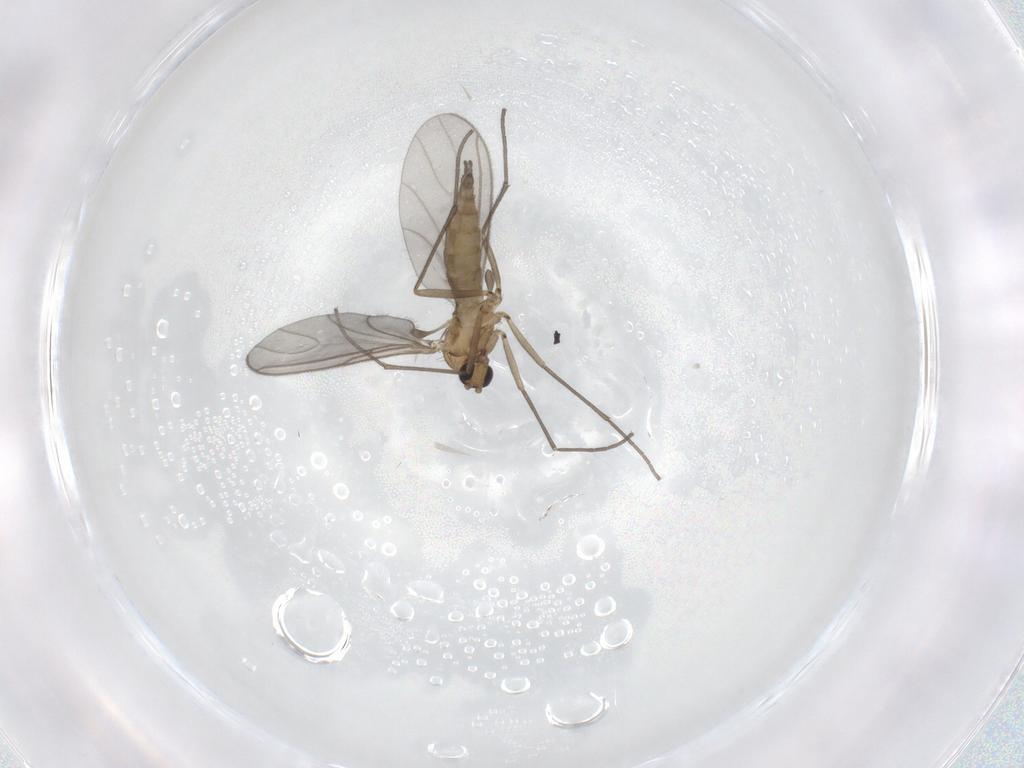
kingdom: Animalia
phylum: Arthropoda
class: Insecta
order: Diptera
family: Sciaridae
